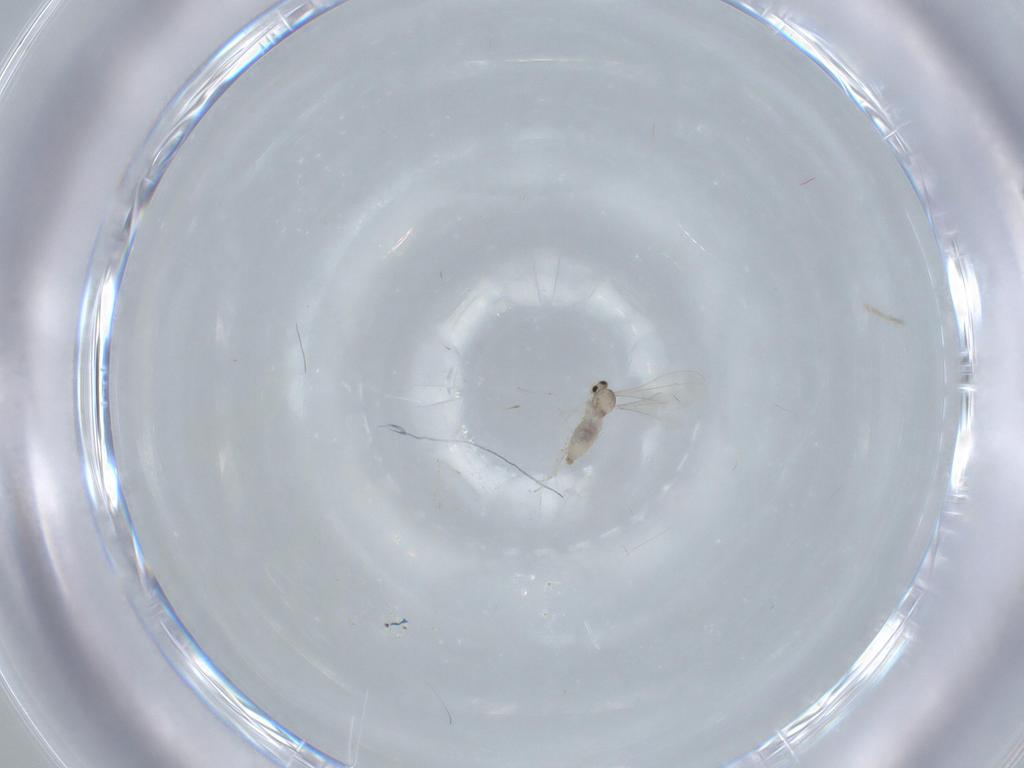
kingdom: Animalia
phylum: Arthropoda
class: Insecta
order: Diptera
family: Cecidomyiidae
